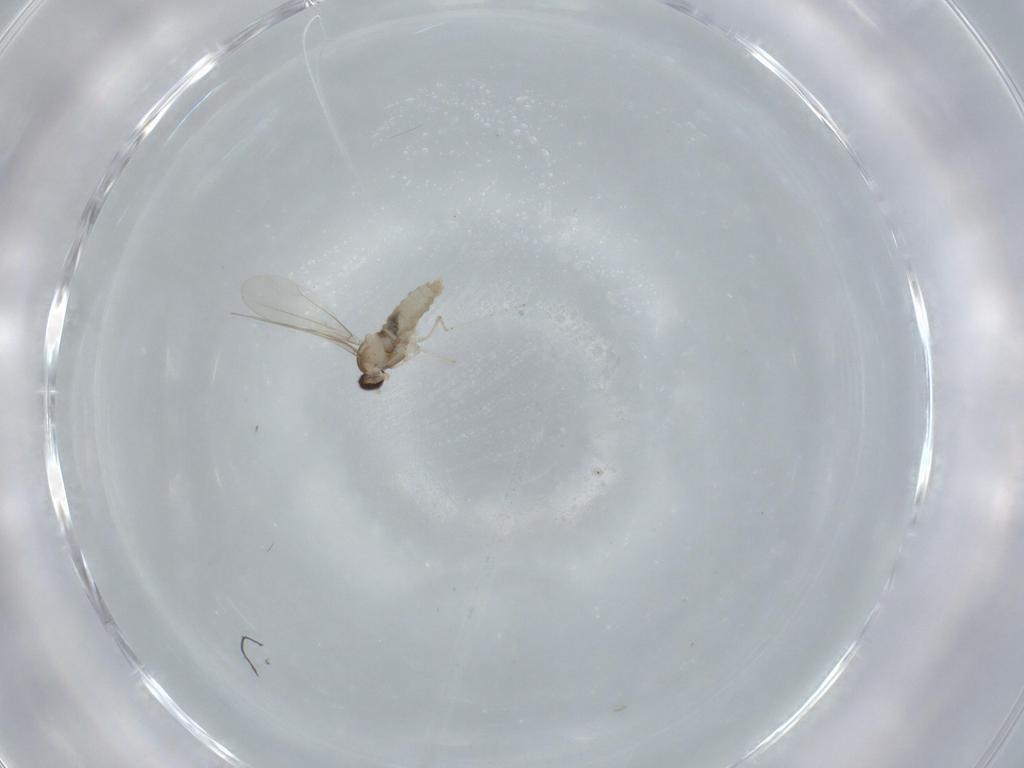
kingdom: Animalia
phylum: Arthropoda
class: Insecta
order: Diptera
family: Cecidomyiidae
